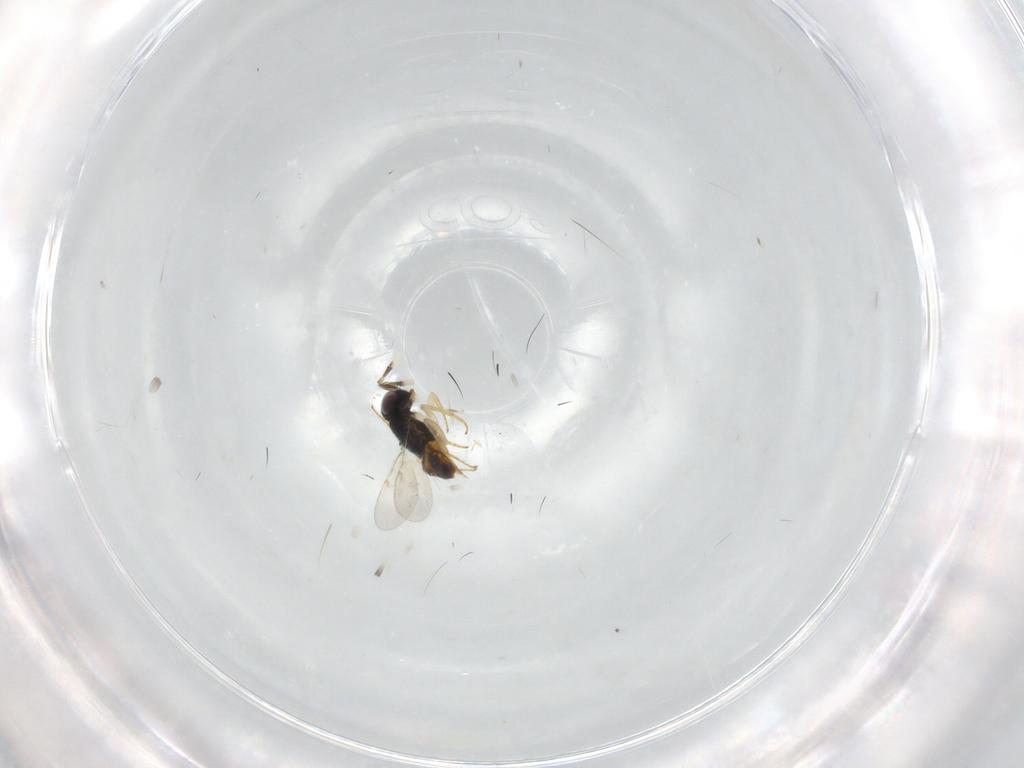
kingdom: Animalia
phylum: Arthropoda
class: Insecta
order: Hymenoptera
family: Encyrtidae
